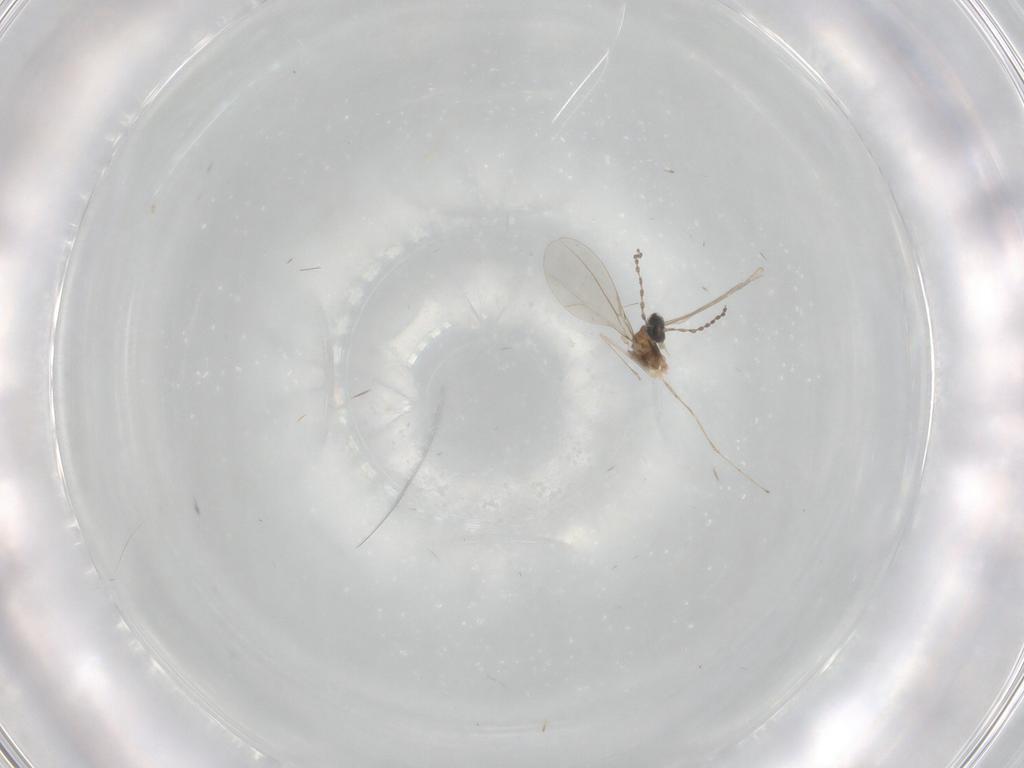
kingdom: Animalia
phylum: Arthropoda
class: Insecta
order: Diptera
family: Cecidomyiidae
